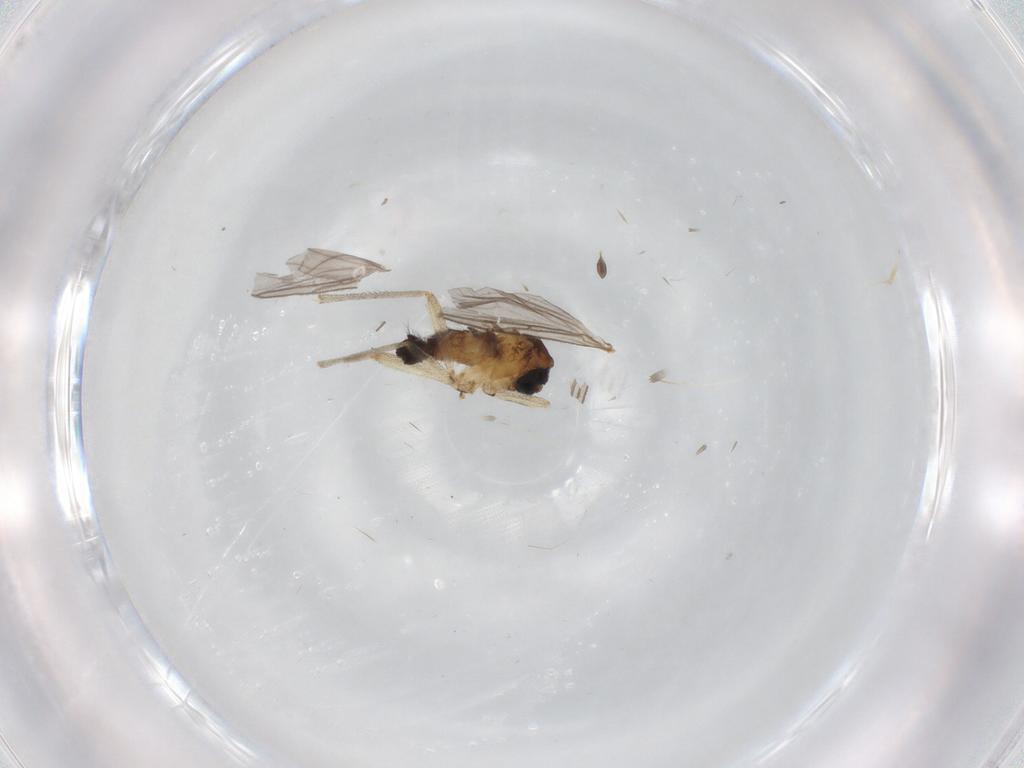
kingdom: Animalia
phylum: Arthropoda
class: Insecta
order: Diptera
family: Sciaridae
